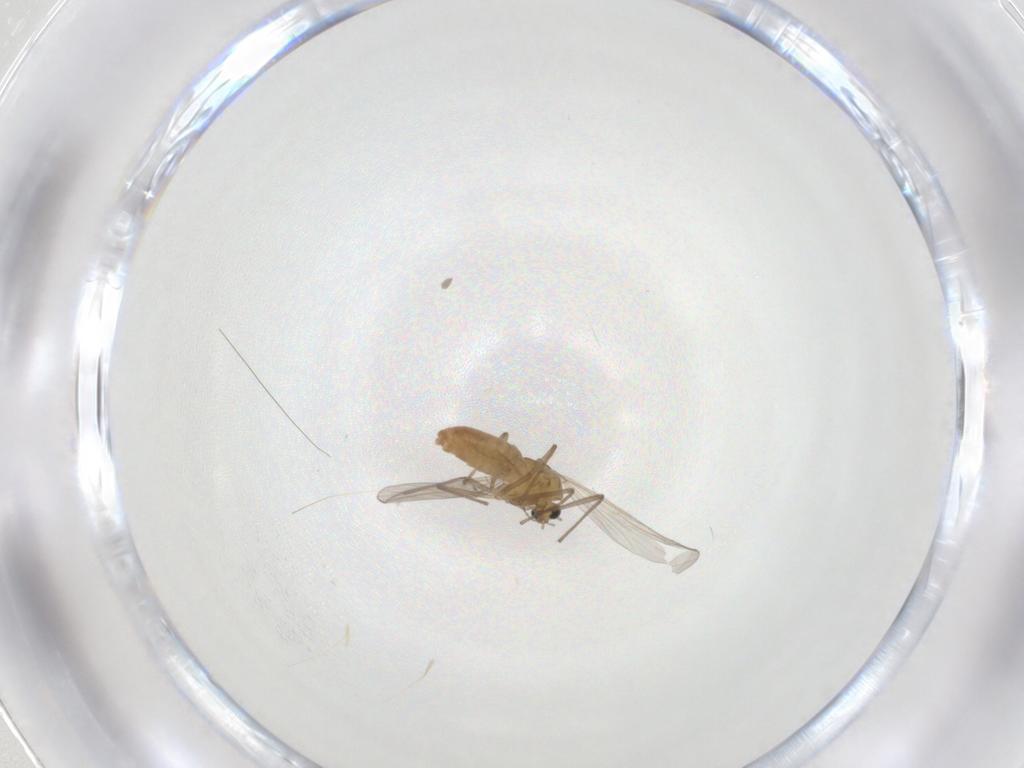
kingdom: Animalia
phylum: Arthropoda
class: Insecta
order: Diptera
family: Chironomidae
